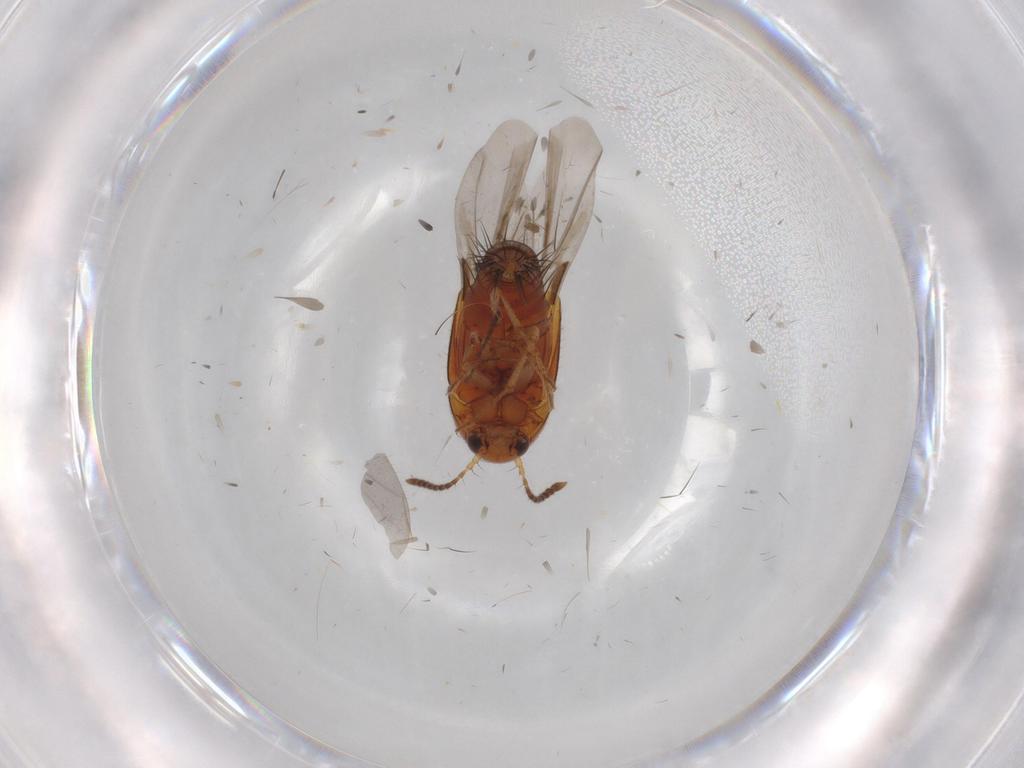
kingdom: Animalia
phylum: Arthropoda
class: Insecta
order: Coleoptera
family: Staphylinidae
